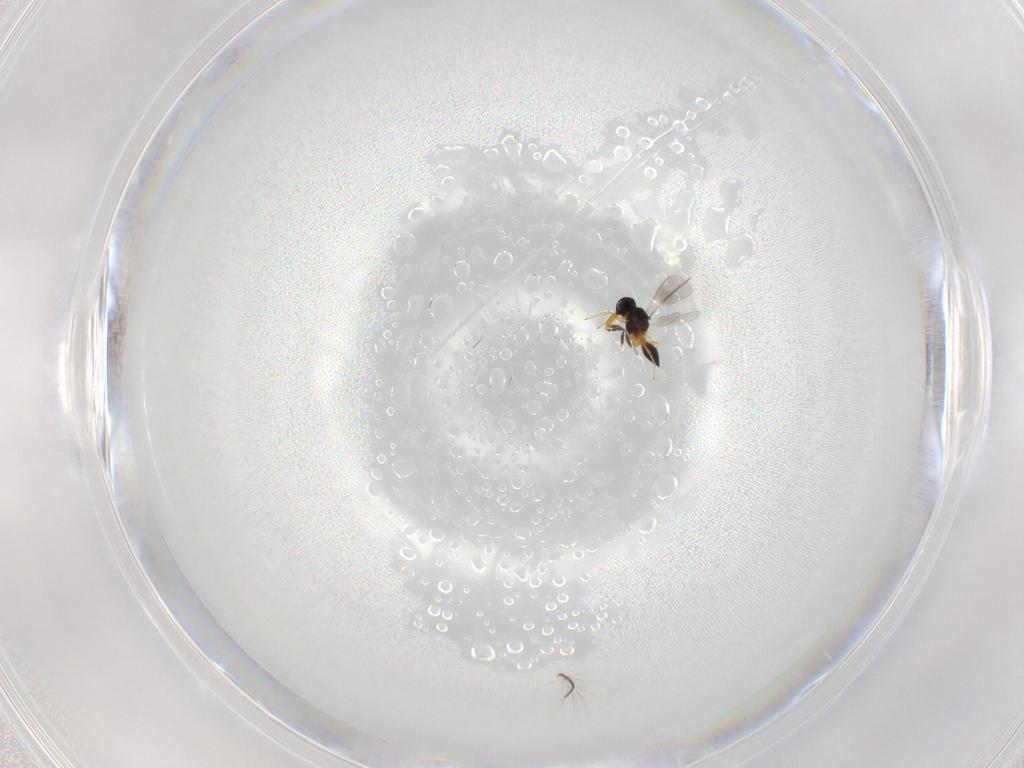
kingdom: Animalia
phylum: Arthropoda
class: Insecta
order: Hymenoptera
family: Platygastridae
